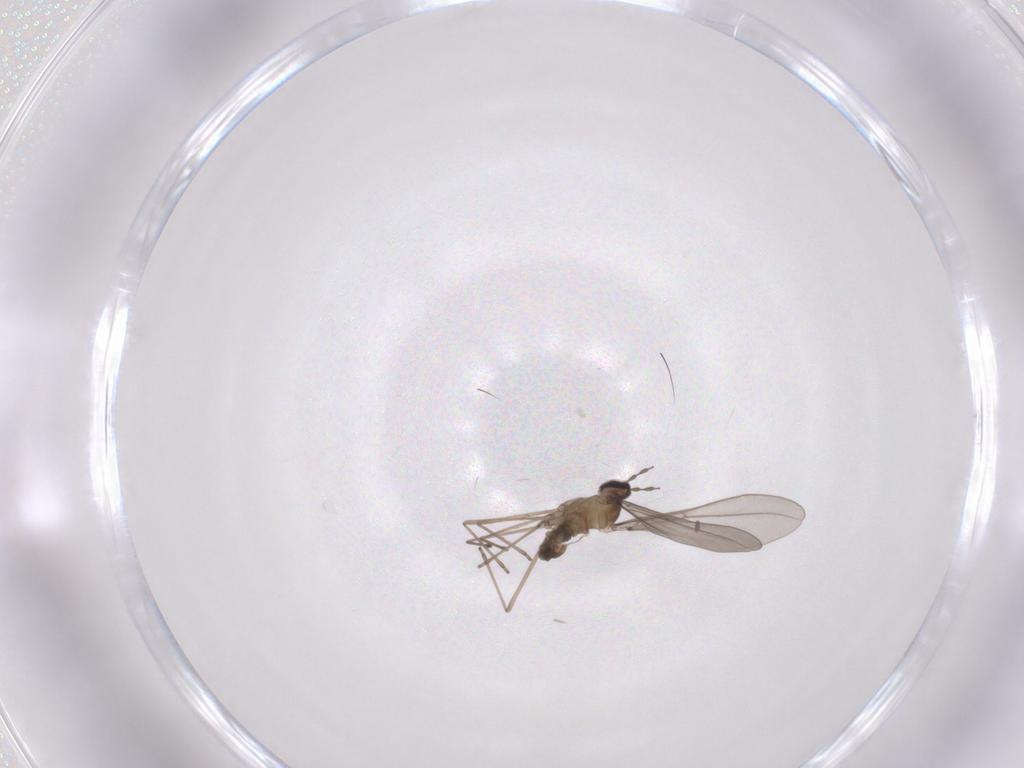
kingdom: Animalia
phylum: Arthropoda
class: Insecta
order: Diptera
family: Cecidomyiidae
